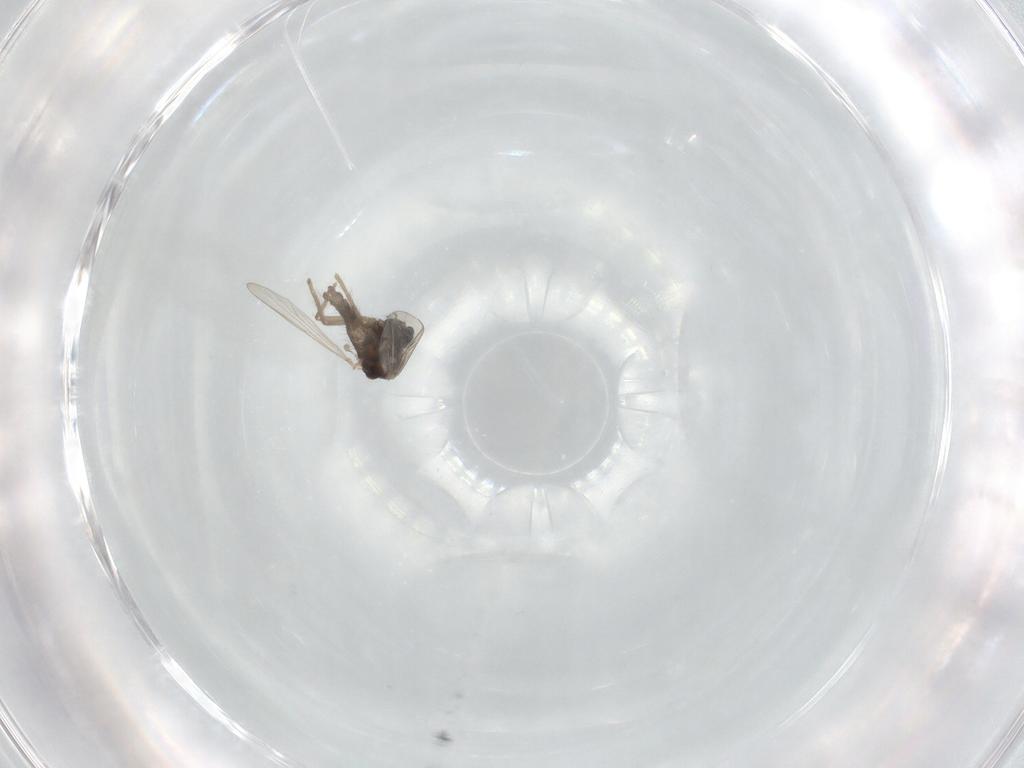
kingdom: Animalia
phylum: Arthropoda
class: Insecta
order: Diptera
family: Chironomidae
